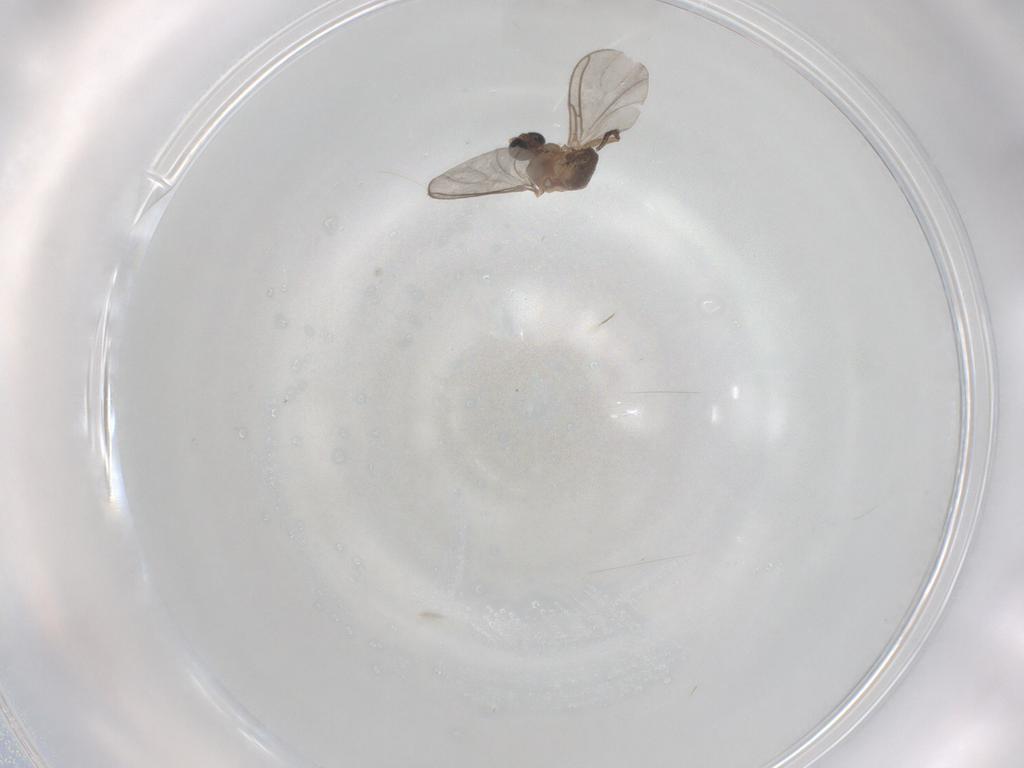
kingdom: Animalia
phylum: Arthropoda
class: Insecta
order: Diptera
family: Sciaridae
